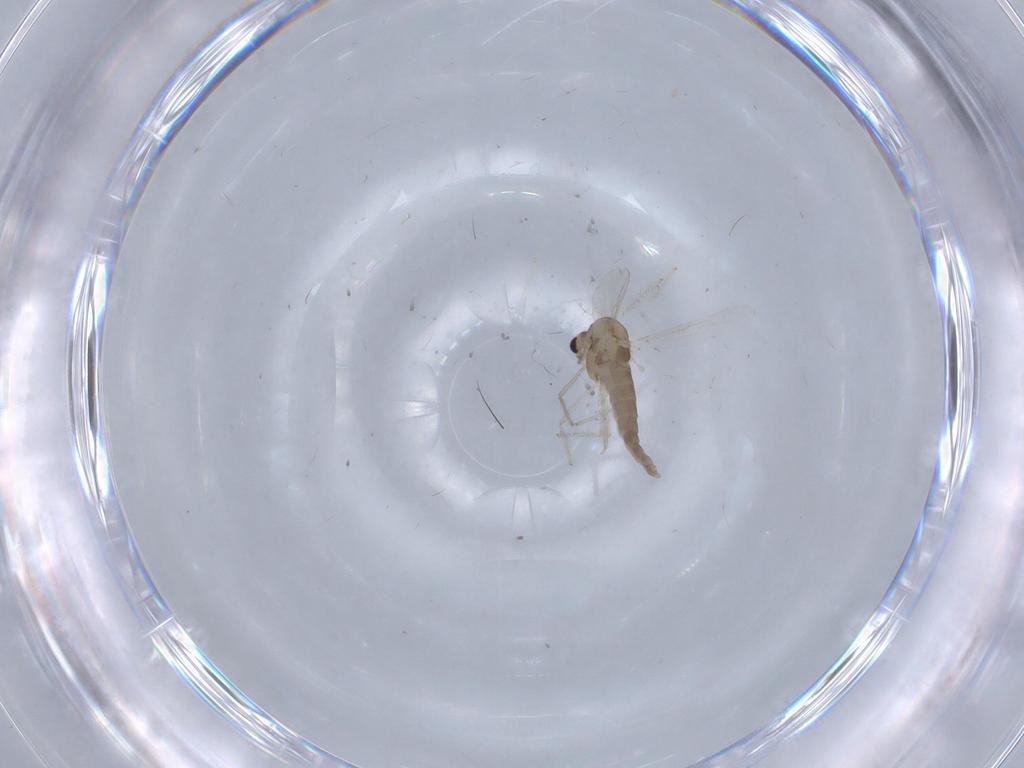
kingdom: Animalia
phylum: Arthropoda
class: Insecta
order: Diptera
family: Chironomidae
